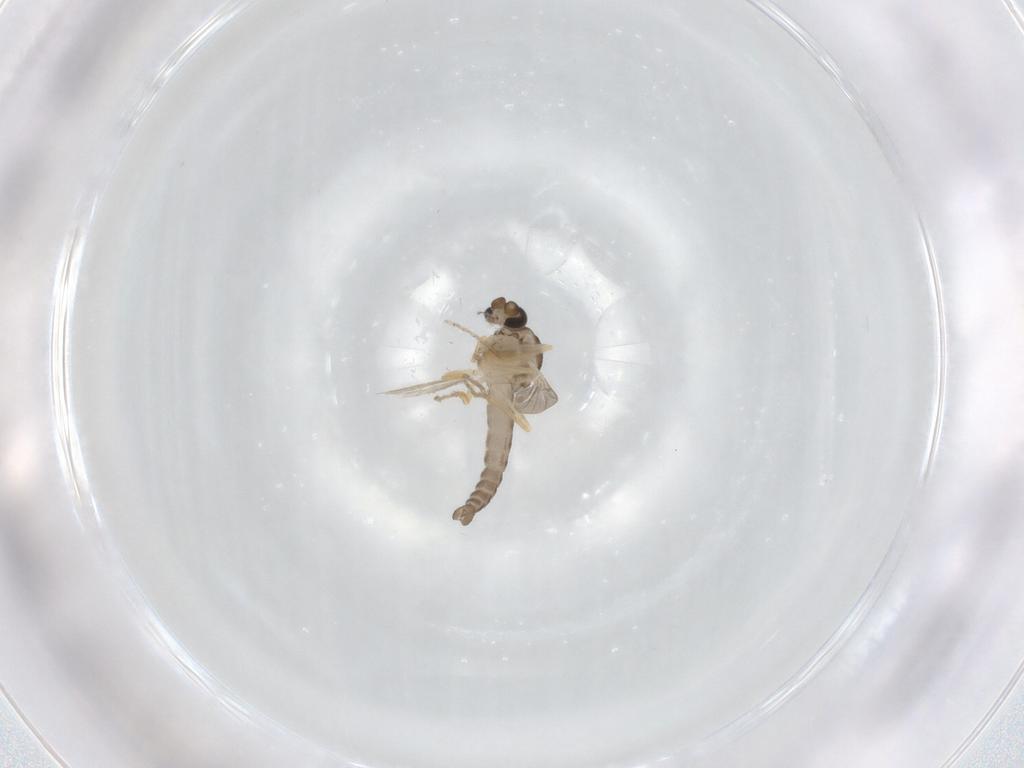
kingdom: Animalia
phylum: Arthropoda
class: Insecta
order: Diptera
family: Ceratopogonidae
